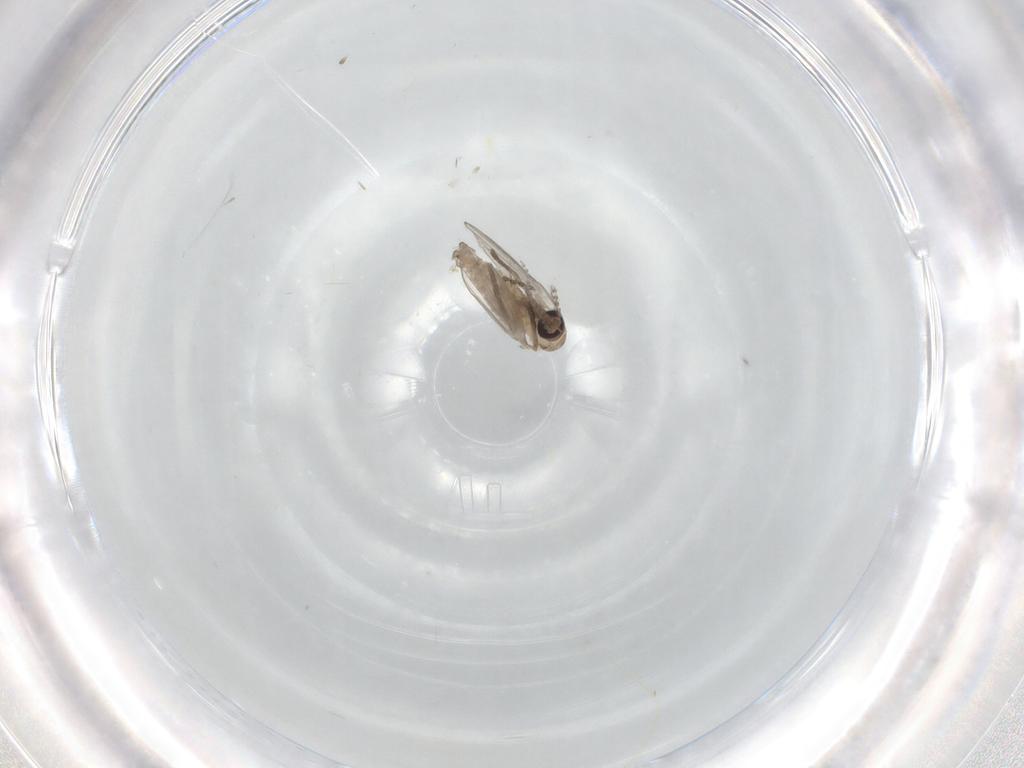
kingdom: Animalia
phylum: Arthropoda
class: Insecta
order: Diptera
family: Psychodidae
